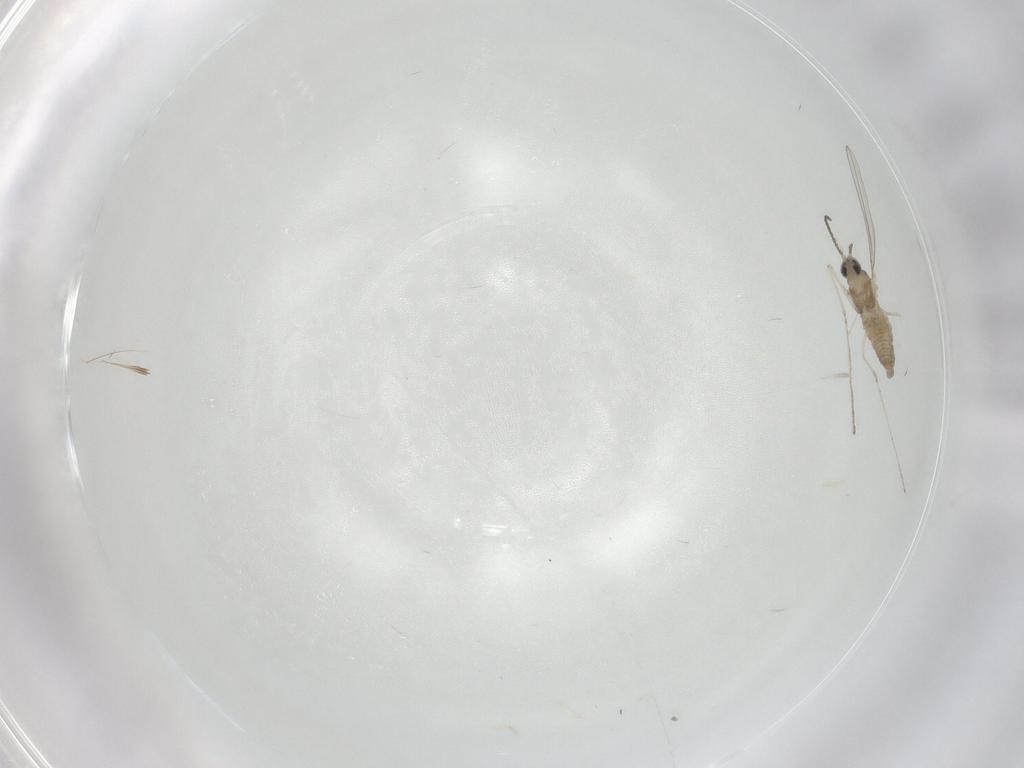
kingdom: Animalia
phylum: Arthropoda
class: Insecta
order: Diptera
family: Cecidomyiidae
